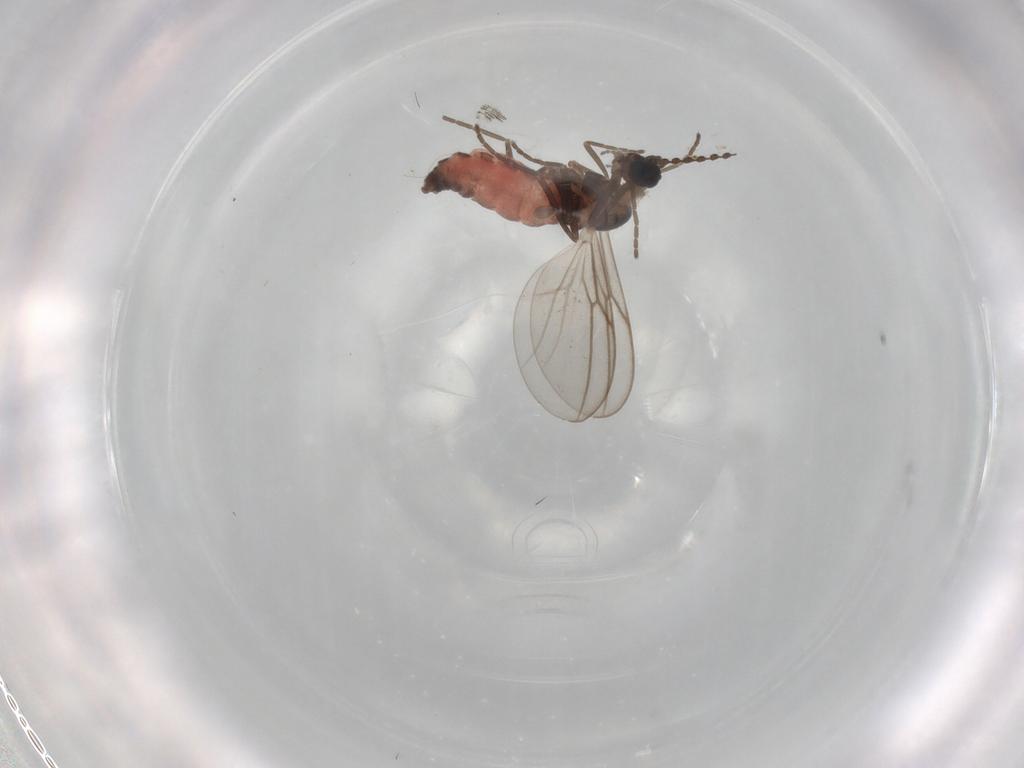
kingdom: Animalia
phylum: Arthropoda
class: Insecta
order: Diptera
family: Cecidomyiidae
